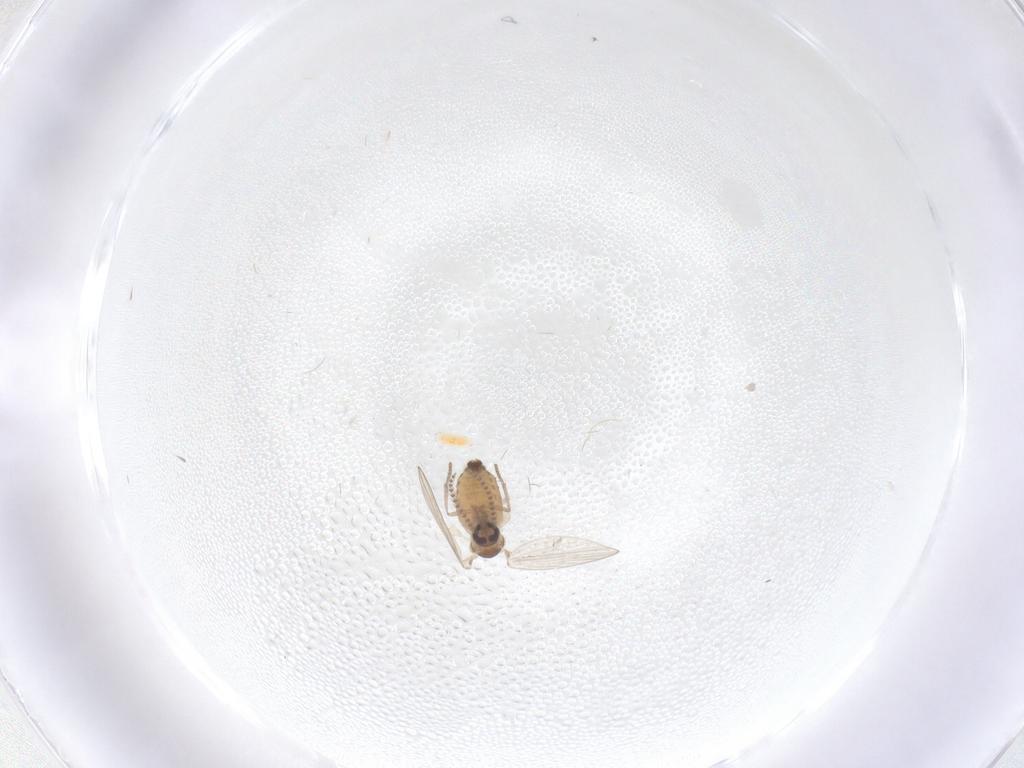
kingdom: Animalia
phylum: Arthropoda
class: Insecta
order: Diptera
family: Psychodidae
